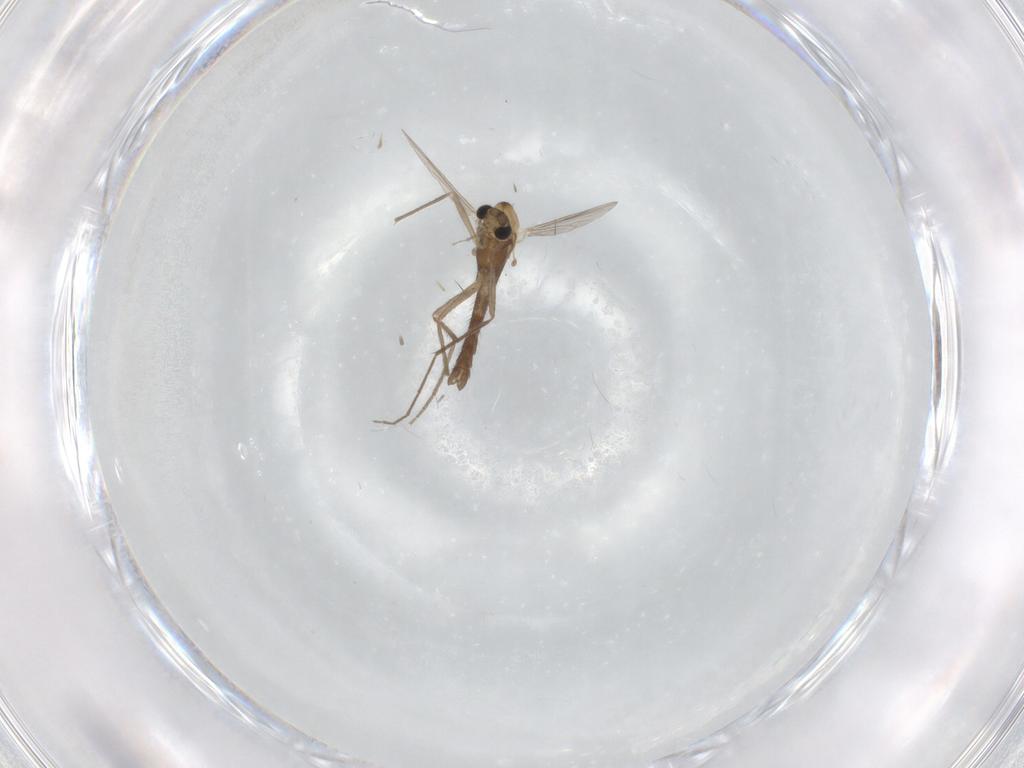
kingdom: Animalia
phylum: Arthropoda
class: Insecta
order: Diptera
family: Chironomidae
